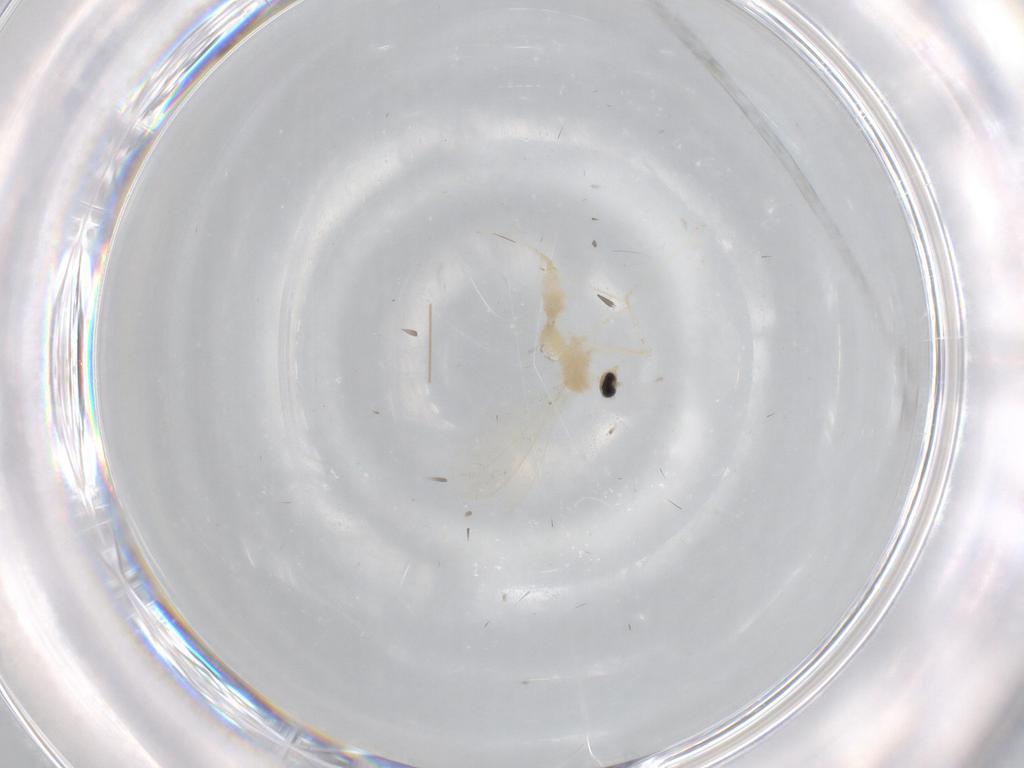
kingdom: Animalia
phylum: Arthropoda
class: Insecta
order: Diptera
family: Cecidomyiidae
